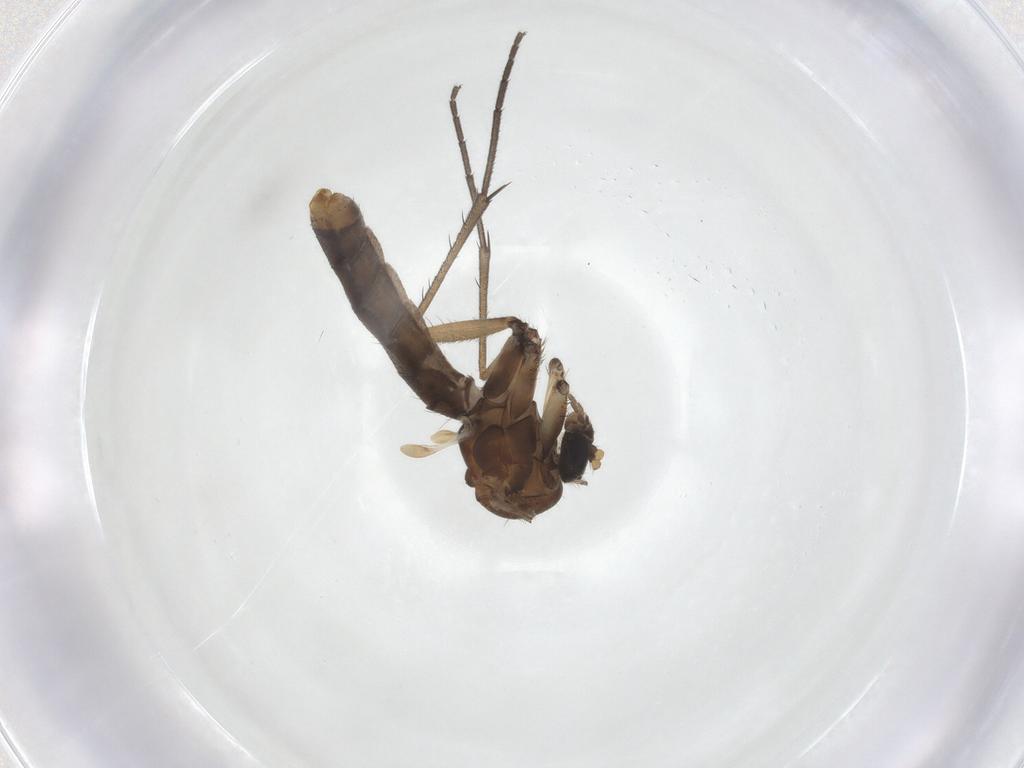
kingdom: Animalia
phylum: Arthropoda
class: Insecta
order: Diptera
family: Mycetophilidae
